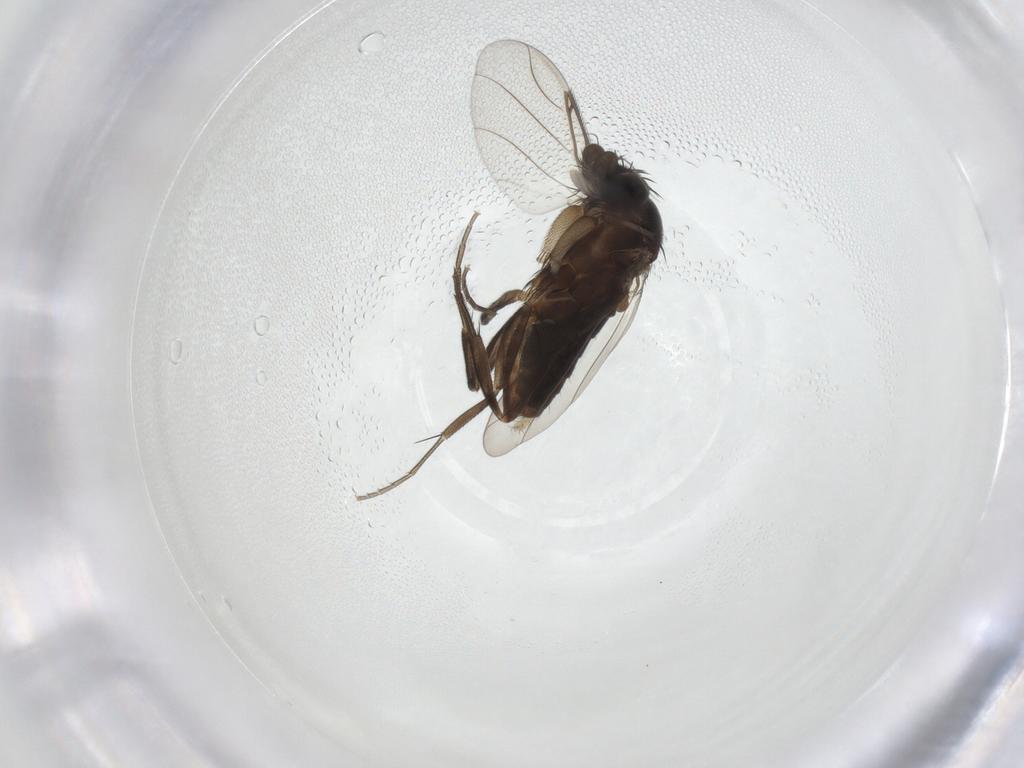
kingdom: Animalia
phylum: Arthropoda
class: Insecta
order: Diptera
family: Phoridae
